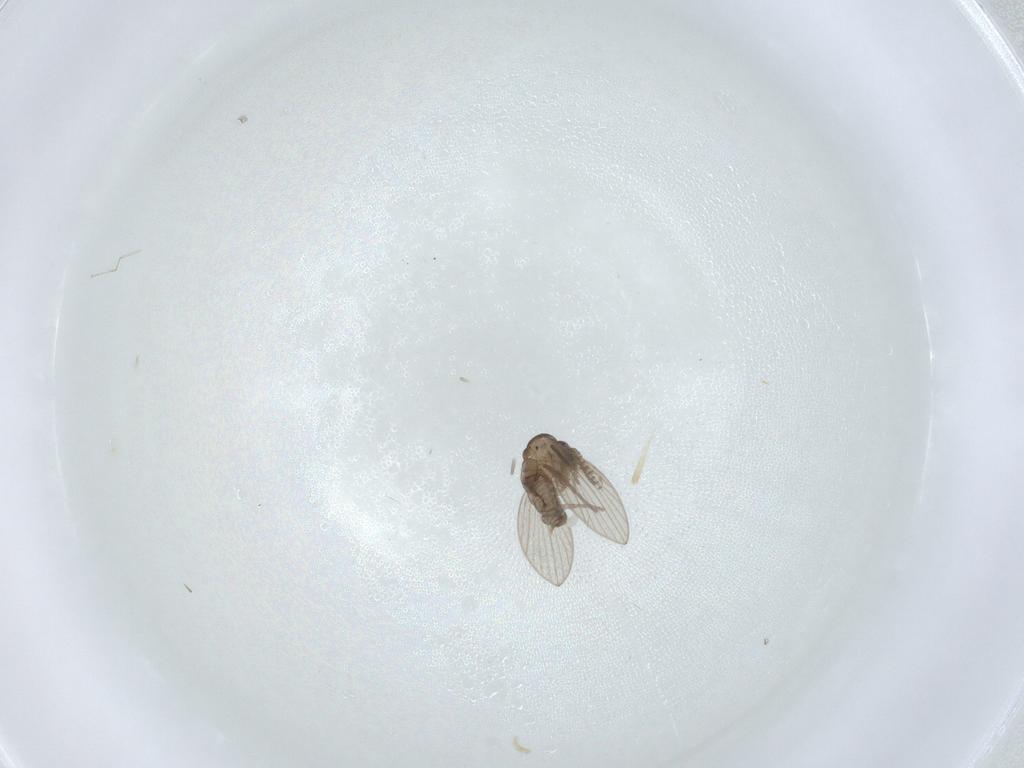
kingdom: Animalia
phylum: Arthropoda
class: Insecta
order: Diptera
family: Psychodidae
